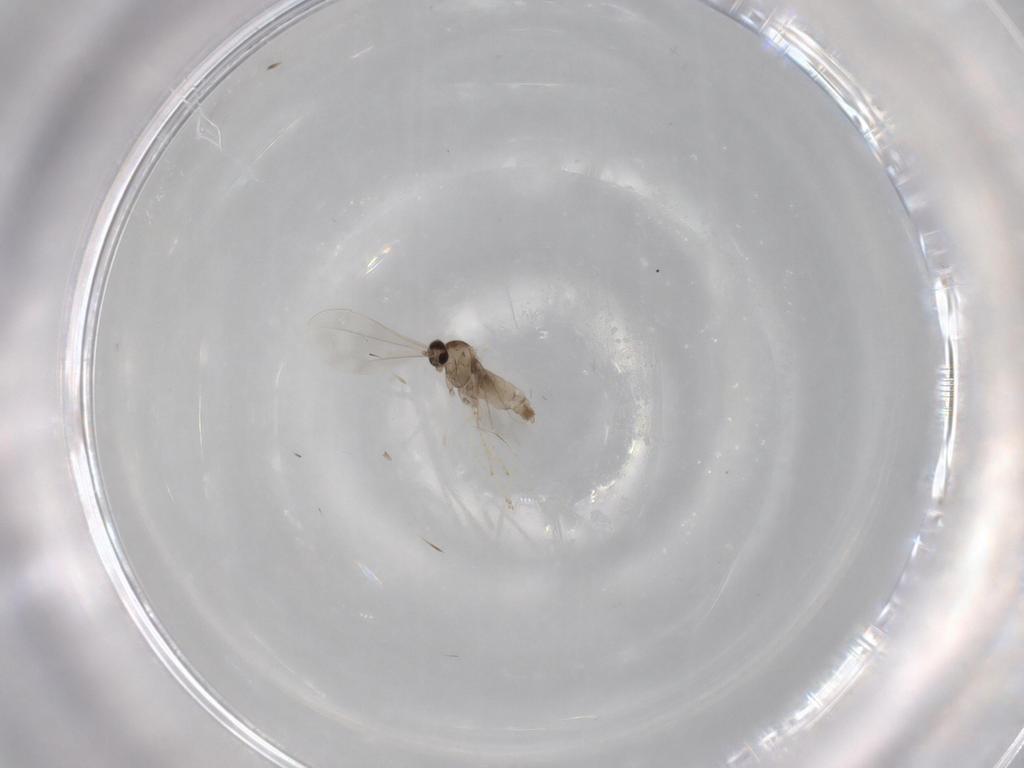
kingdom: Animalia
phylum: Arthropoda
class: Insecta
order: Diptera
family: Cecidomyiidae
